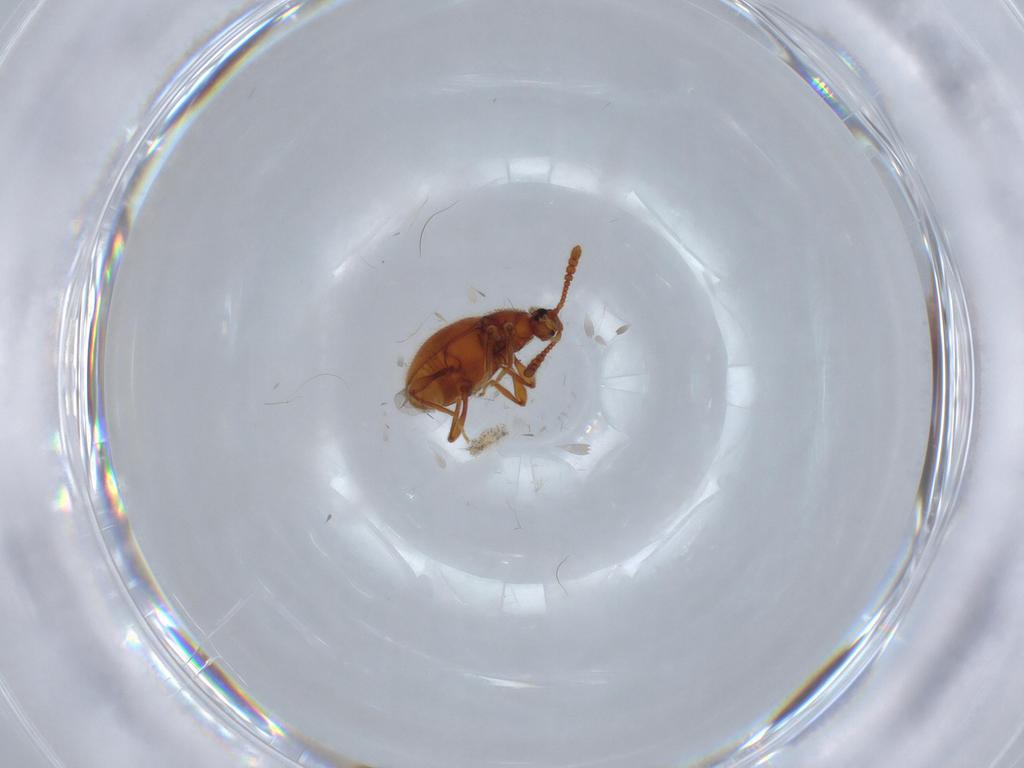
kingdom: Animalia
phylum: Arthropoda
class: Insecta
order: Coleoptera
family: Staphylinidae
